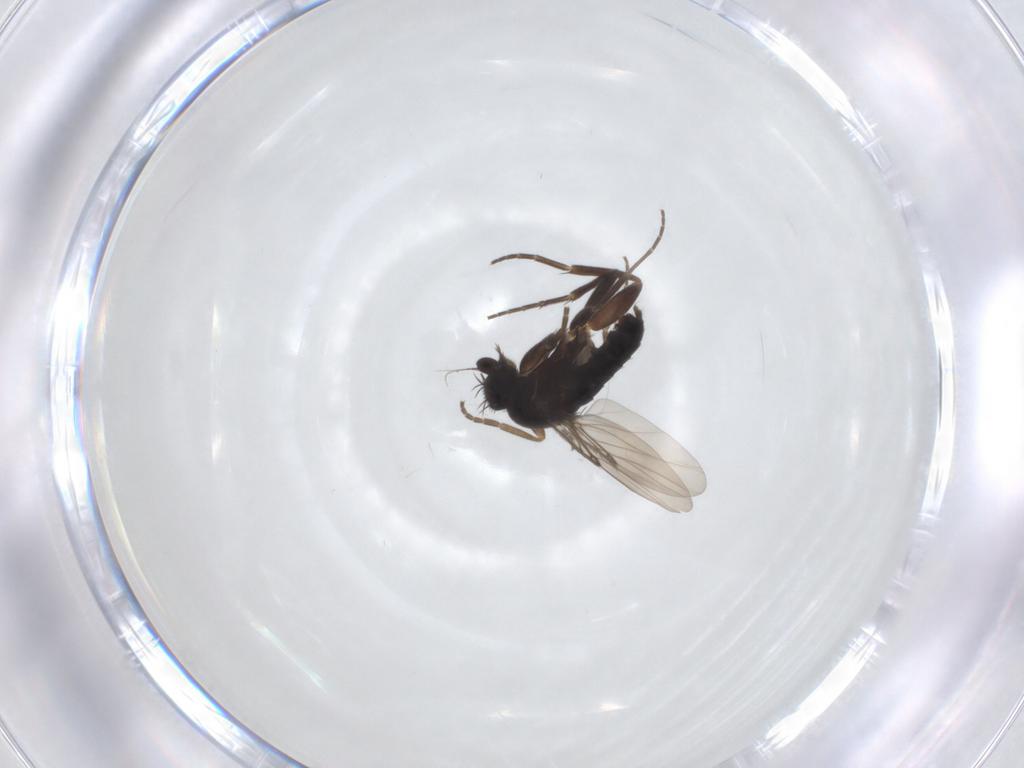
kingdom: Animalia
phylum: Arthropoda
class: Insecta
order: Diptera
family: Phoridae
